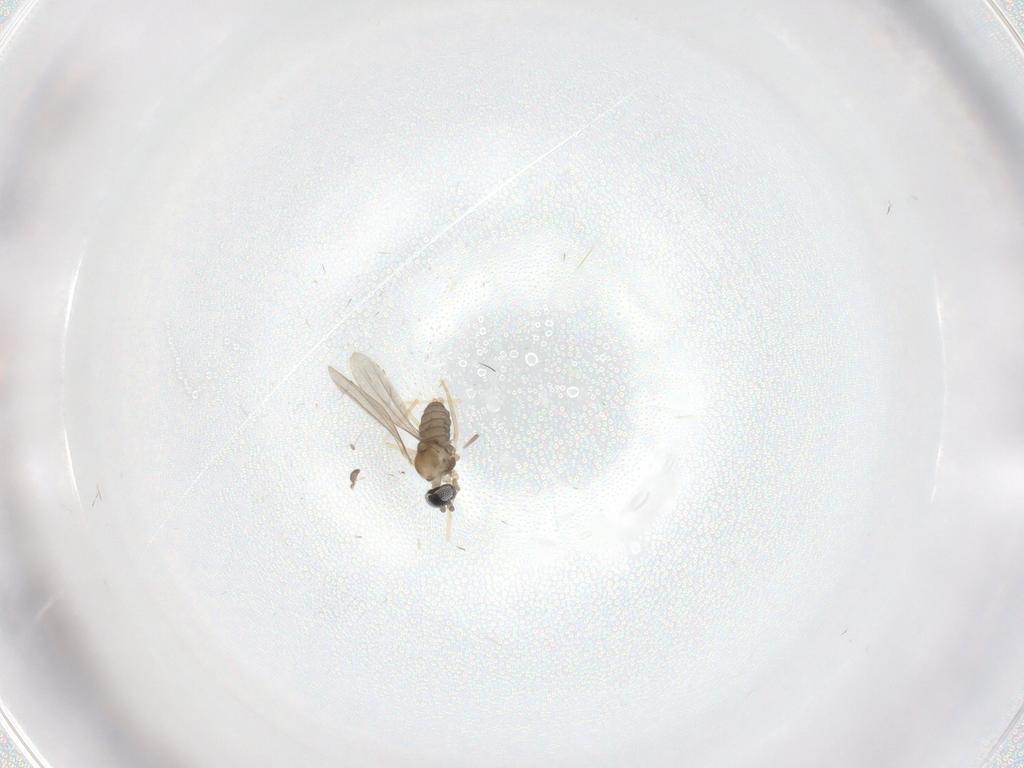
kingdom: Animalia
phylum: Arthropoda
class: Insecta
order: Diptera
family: Cecidomyiidae
